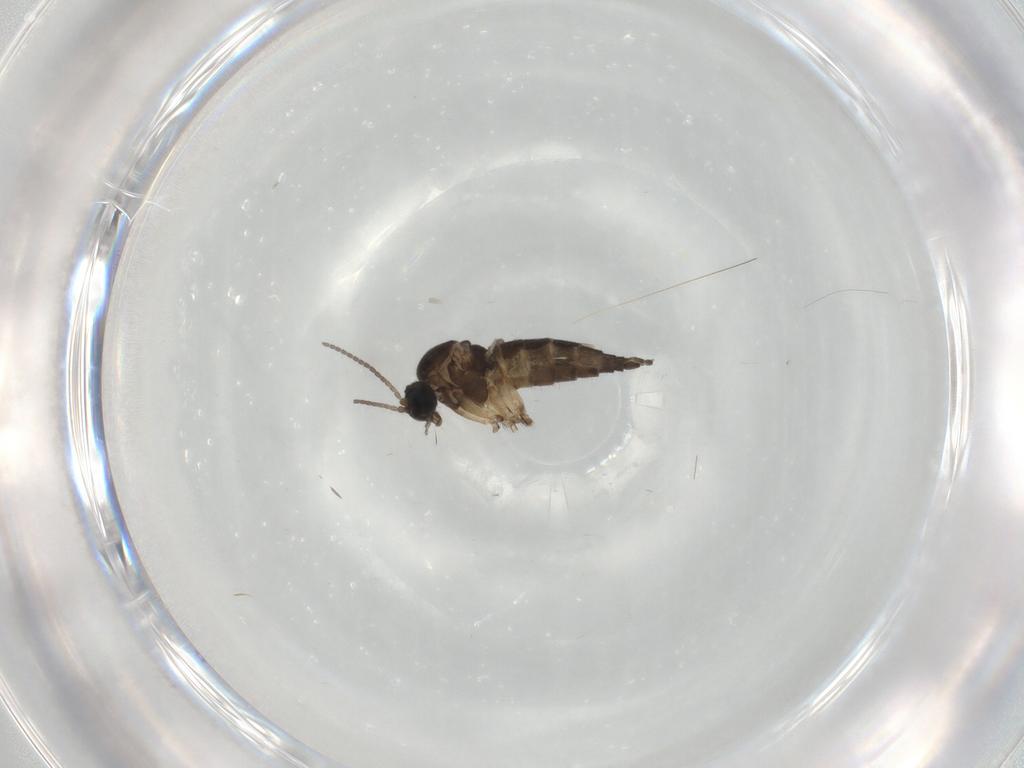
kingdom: Animalia
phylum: Arthropoda
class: Insecta
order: Diptera
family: Sciaridae
